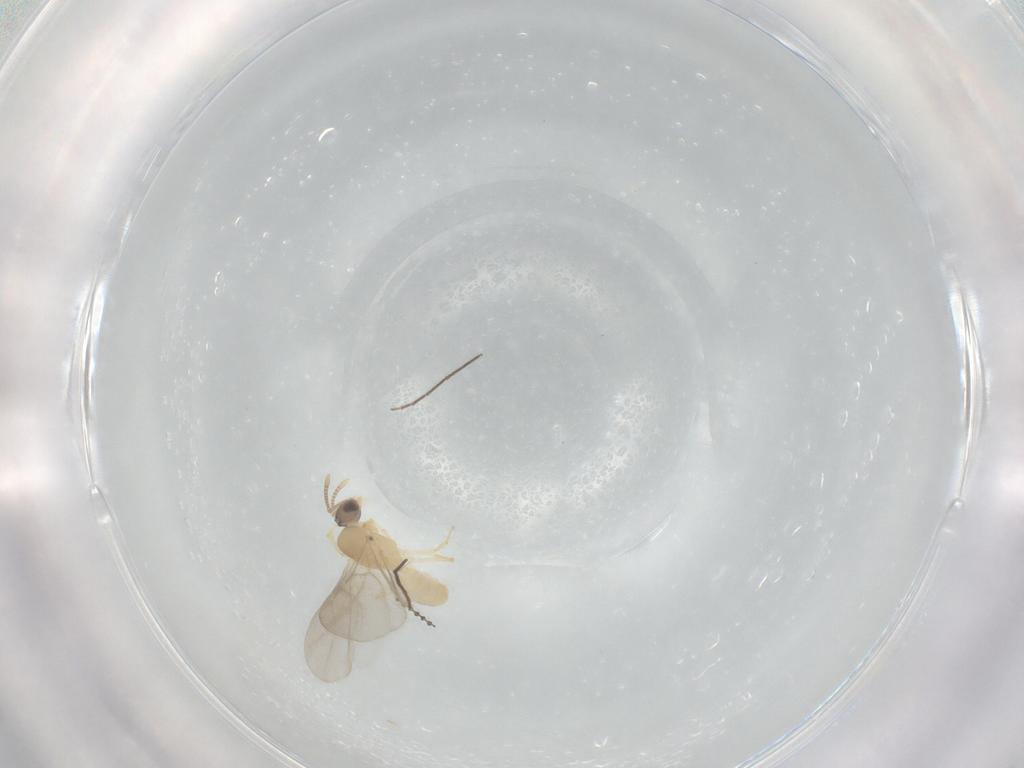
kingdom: Animalia
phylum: Arthropoda
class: Insecta
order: Hymenoptera
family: Formicidae
